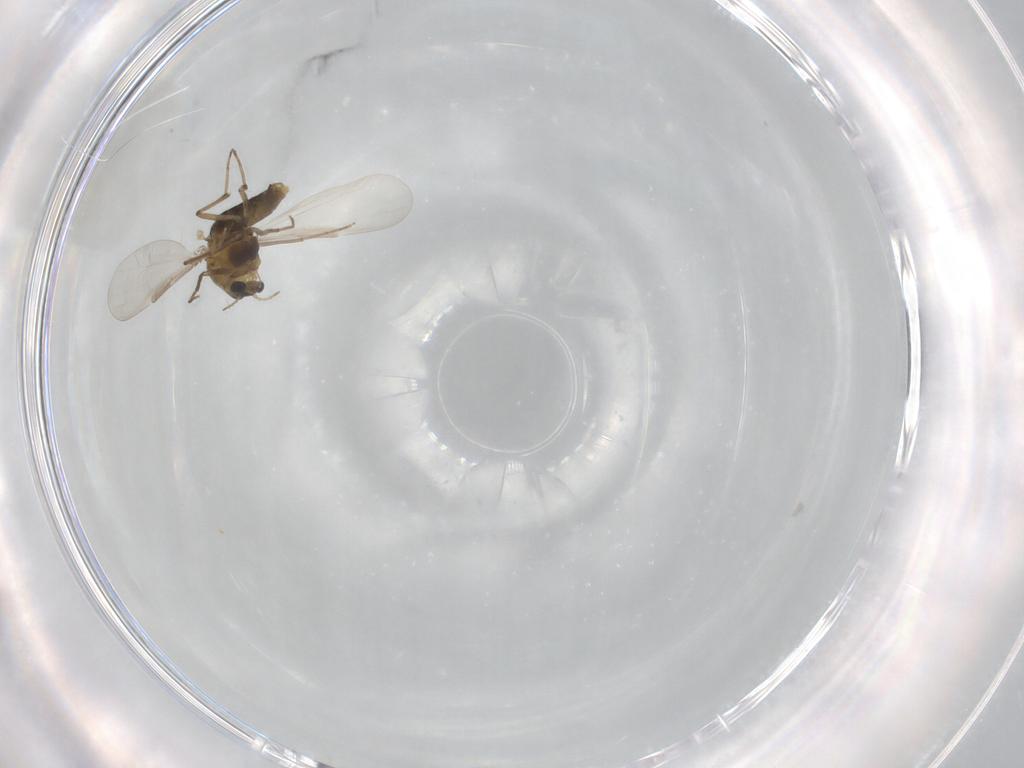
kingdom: Animalia
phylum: Arthropoda
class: Insecta
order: Diptera
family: Chironomidae
